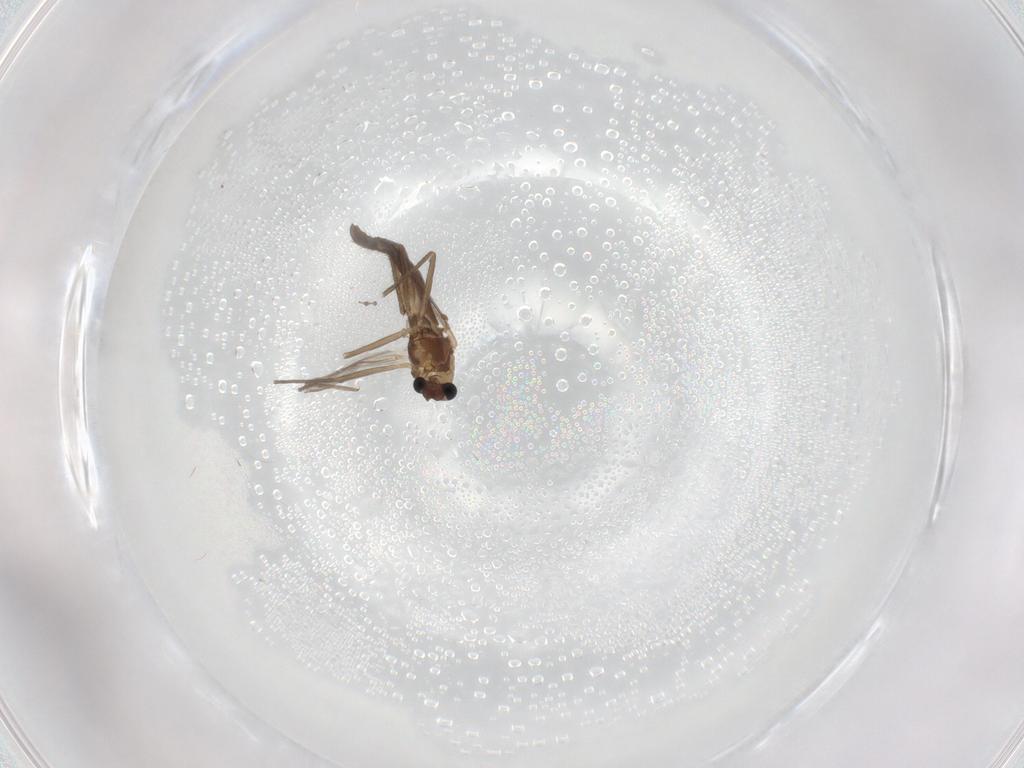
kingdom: Animalia
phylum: Arthropoda
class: Insecta
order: Diptera
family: Chironomidae
